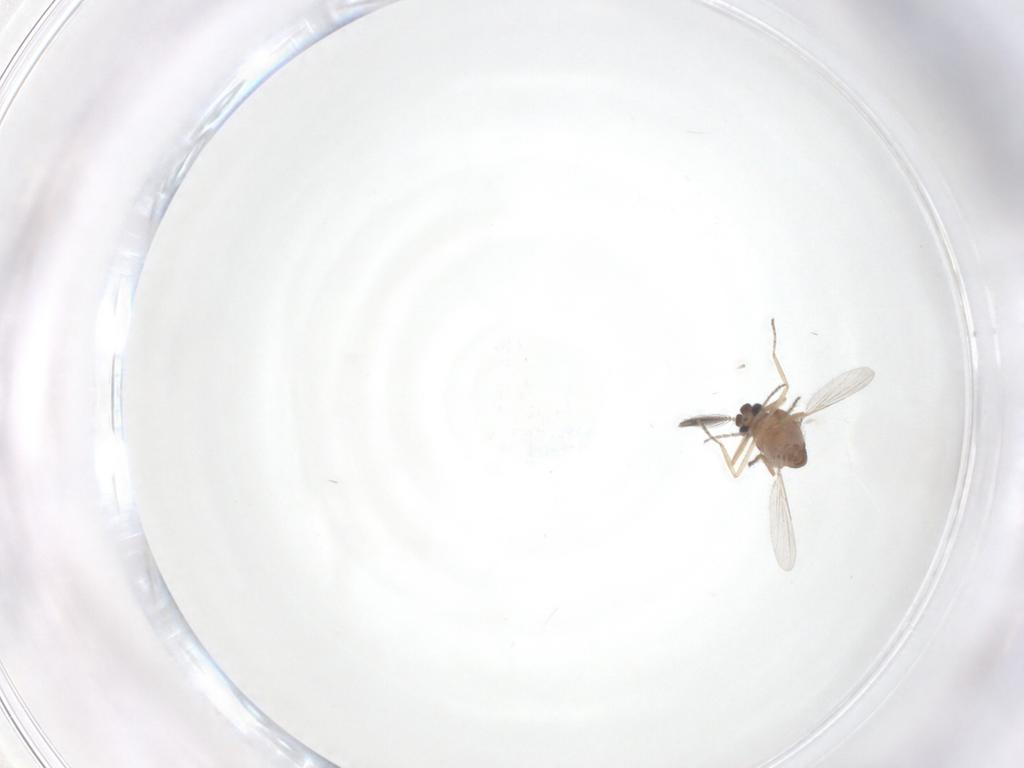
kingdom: Animalia
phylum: Arthropoda
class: Insecta
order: Diptera
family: Ceratopogonidae
